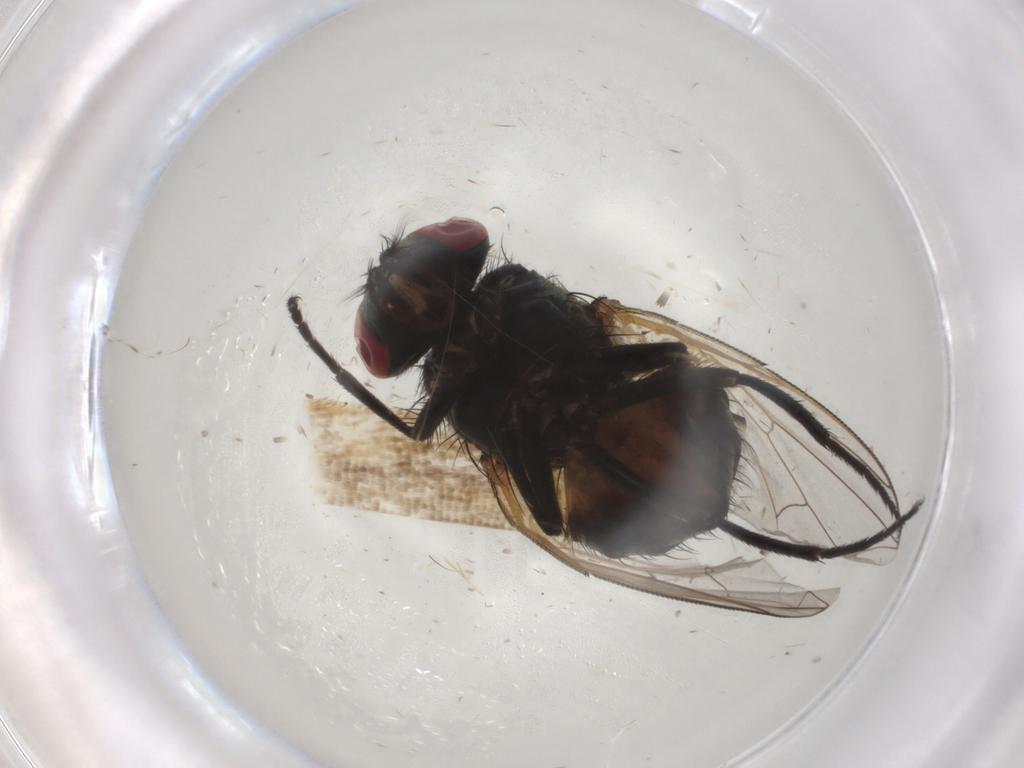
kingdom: Animalia
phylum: Arthropoda
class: Insecta
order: Diptera
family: Muscidae
